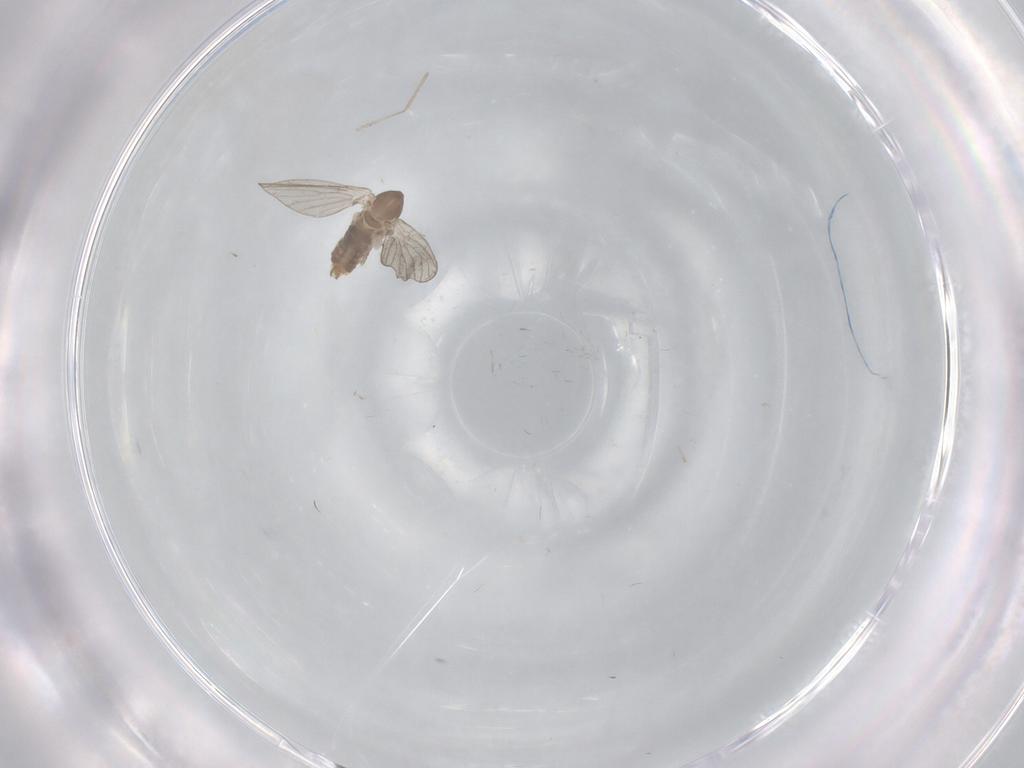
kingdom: Animalia
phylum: Arthropoda
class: Insecta
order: Diptera
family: Cecidomyiidae
